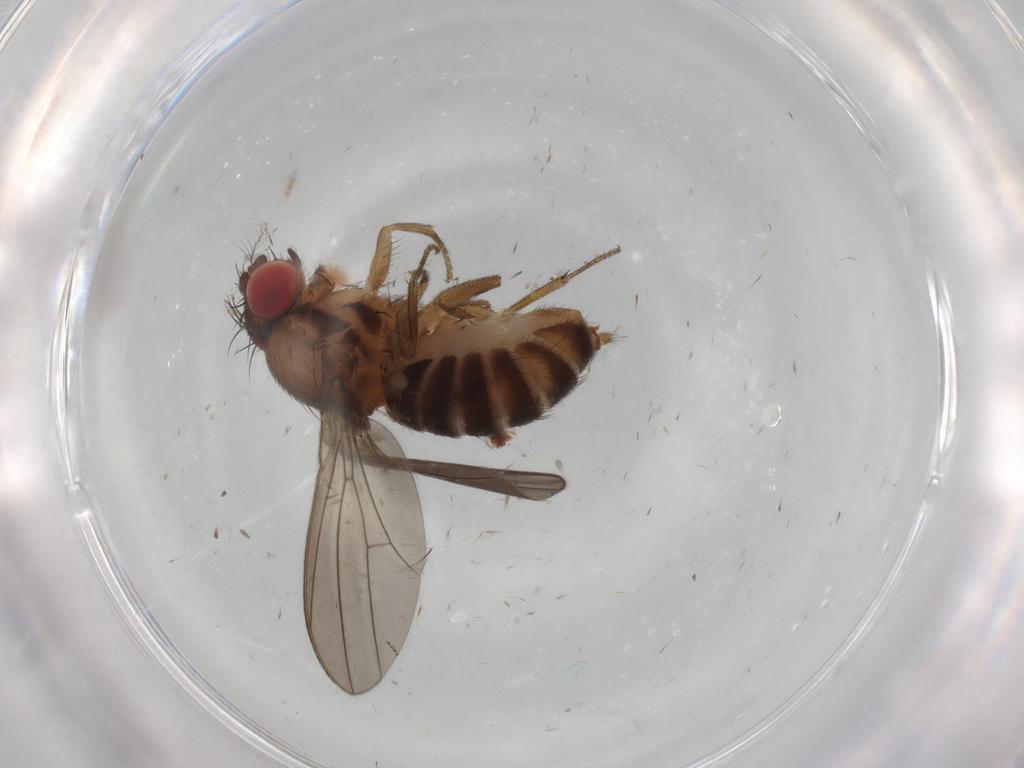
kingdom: Animalia
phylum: Arthropoda
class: Insecta
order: Diptera
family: Drosophilidae
